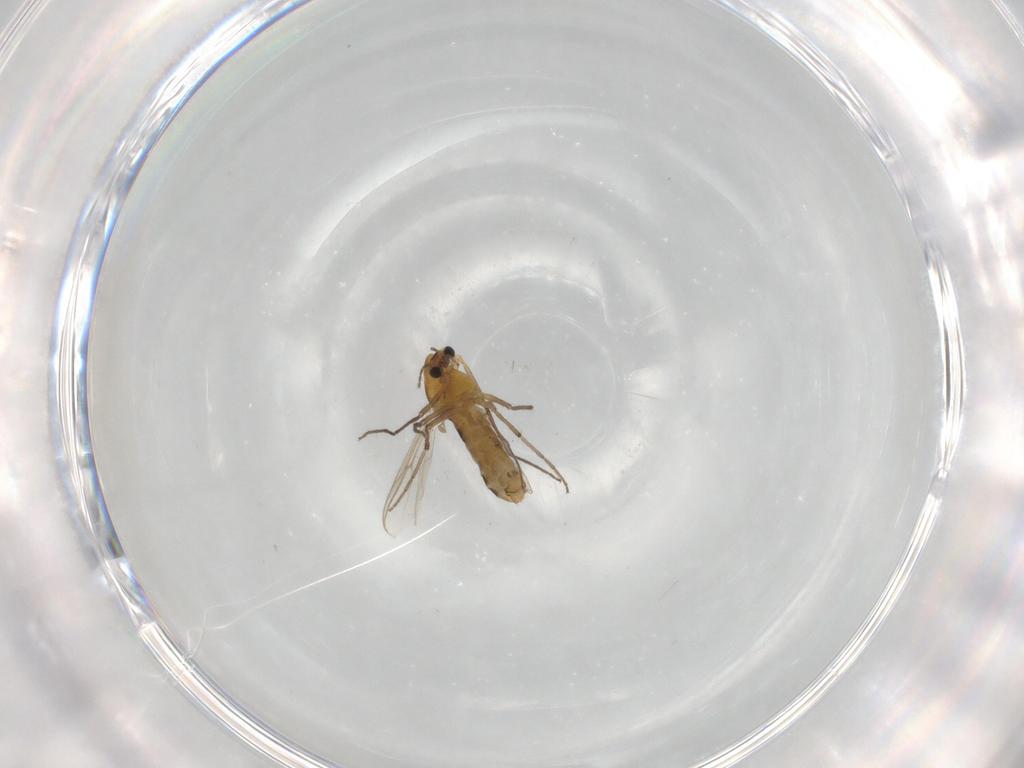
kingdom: Animalia
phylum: Arthropoda
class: Insecta
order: Diptera
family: Chironomidae
